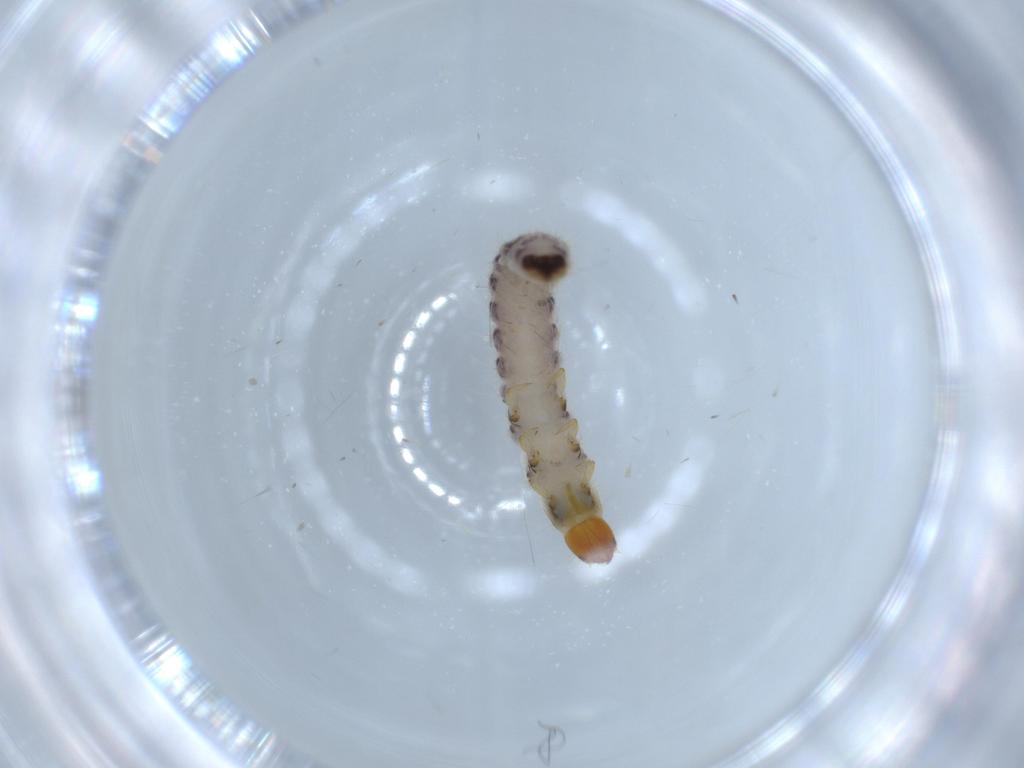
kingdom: Animalia
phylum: Arthropoda
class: Insecta
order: Coleoptera
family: Cleridae
